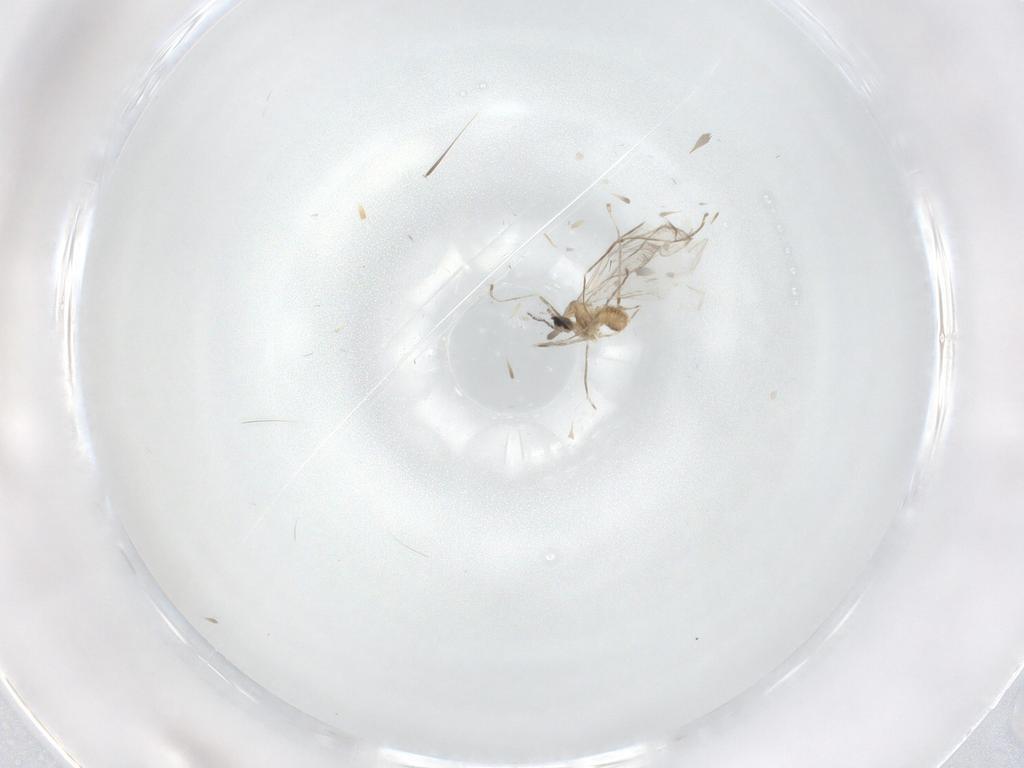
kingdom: Animalia
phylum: Arthropoda
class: Insecta
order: Diptera
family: Cecidomyiidae
